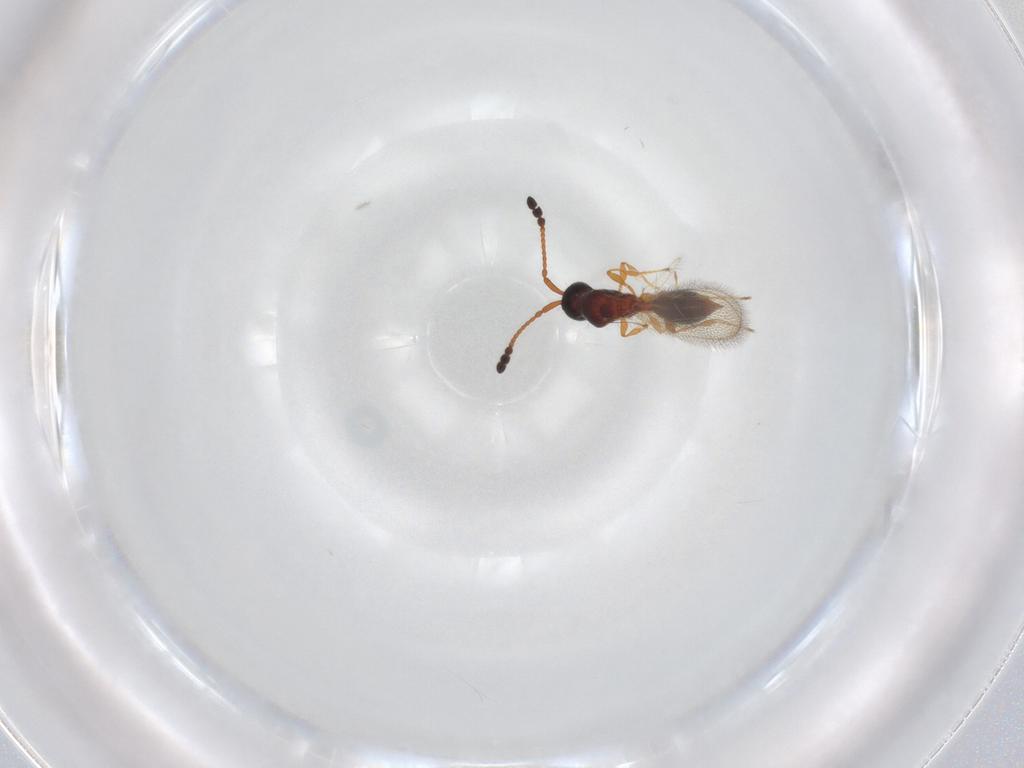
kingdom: Animalia
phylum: Arthropoda
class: Insecta
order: Hymenoptera
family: Diapriidae
